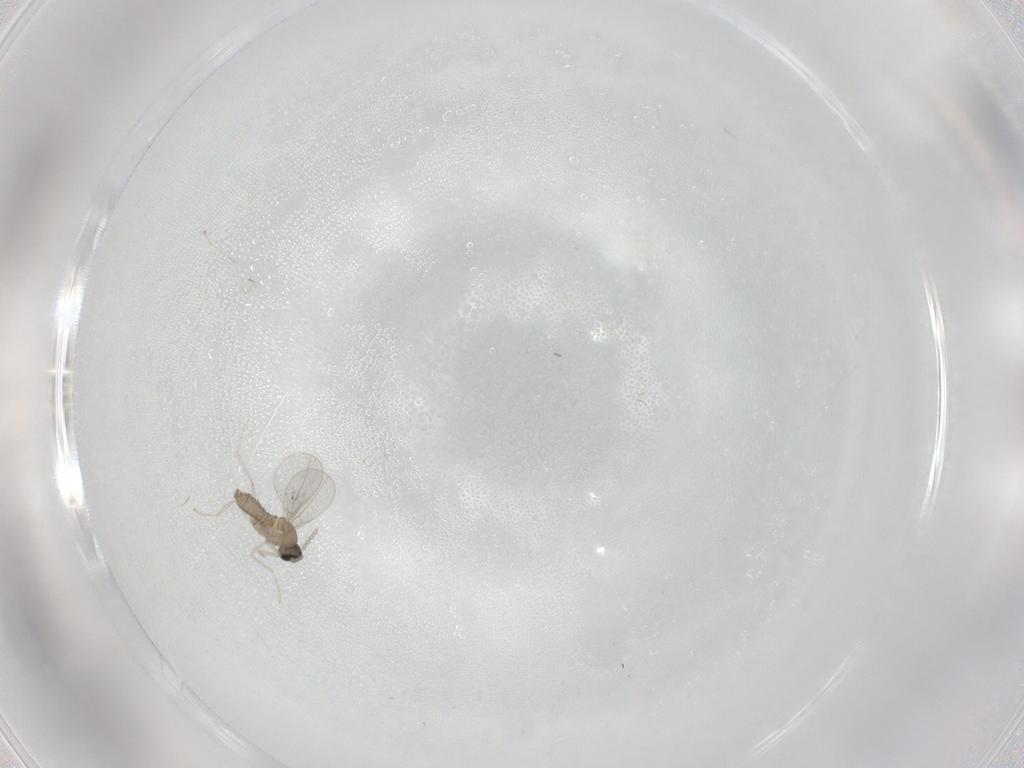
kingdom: Animalia
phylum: Arthropoda
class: Insecta
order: Diptera
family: Cecidomyiidae
